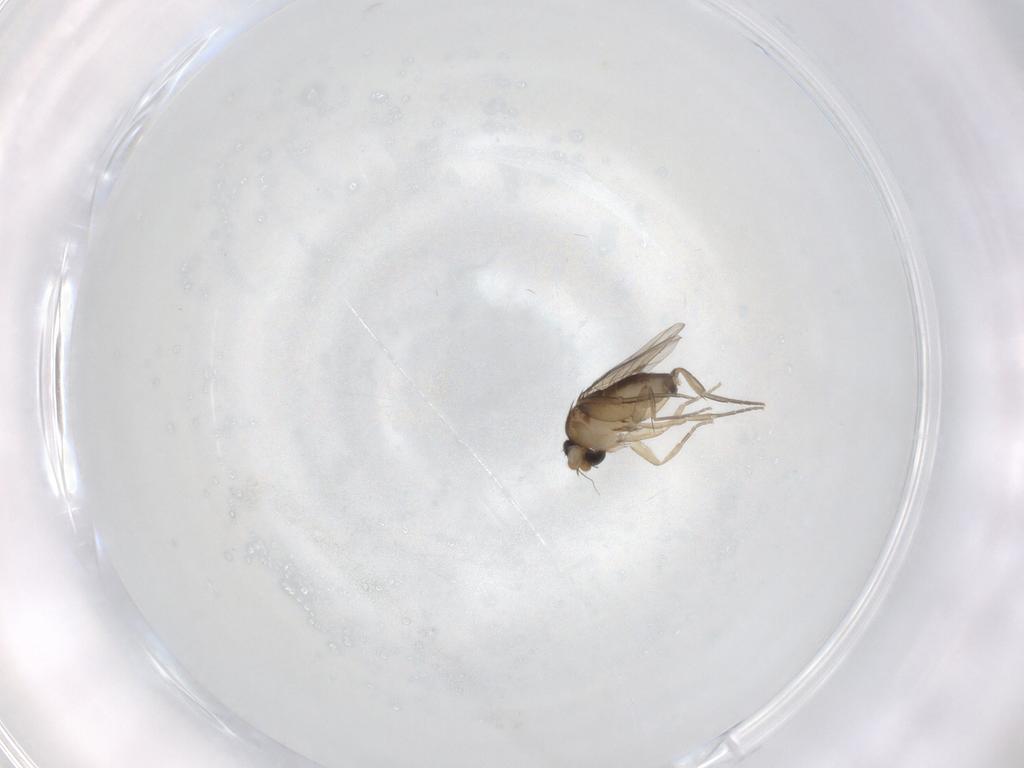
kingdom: Animalia
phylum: Arthropoda
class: Insecta
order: Diptera
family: Phoridae
